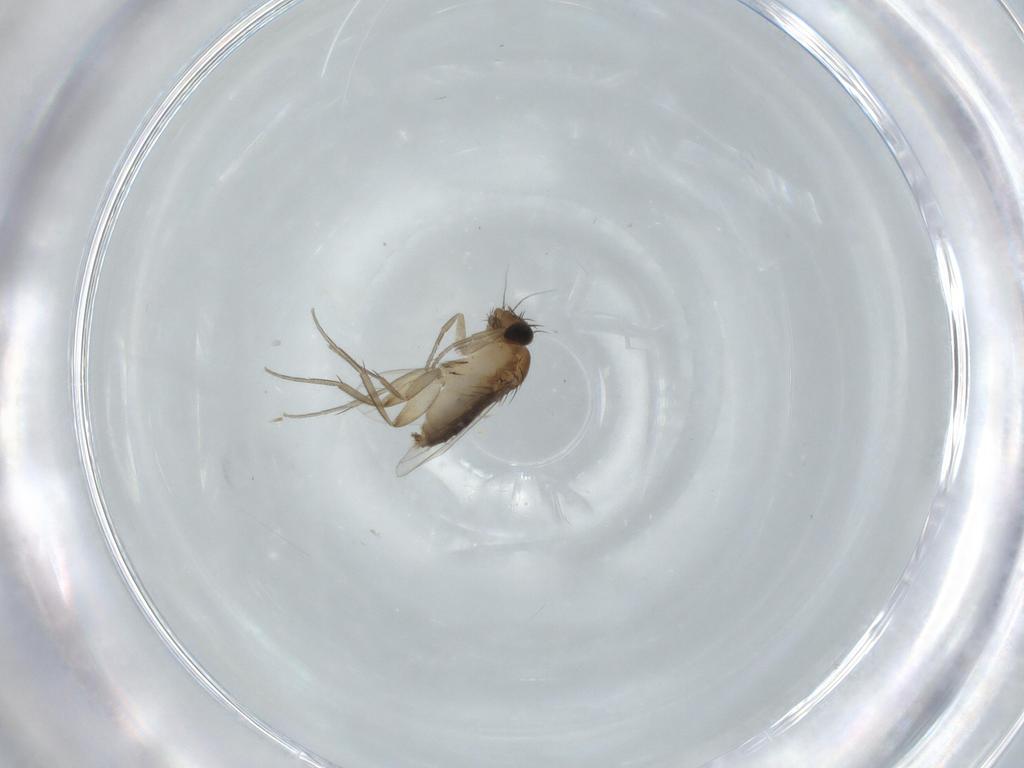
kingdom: Animalia
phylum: Arthropoda
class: Insecta
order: Diptera
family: Phoridae
